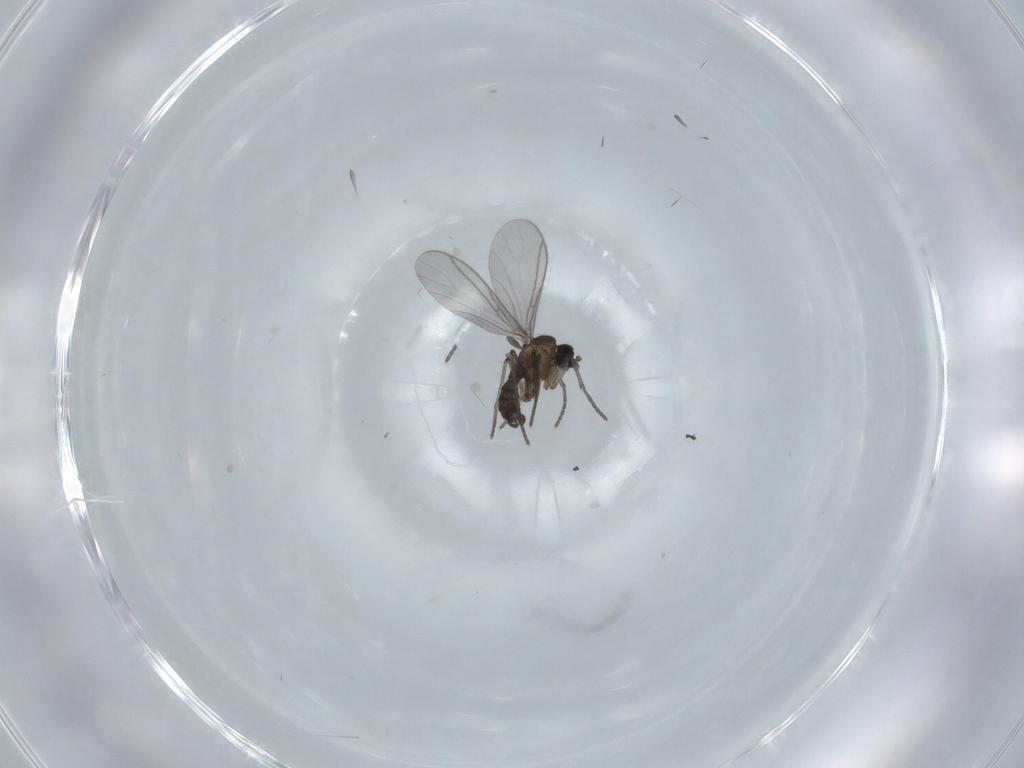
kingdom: Animalia
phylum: Arthropoda
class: Insecta
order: Diptera
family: Sciaridae
